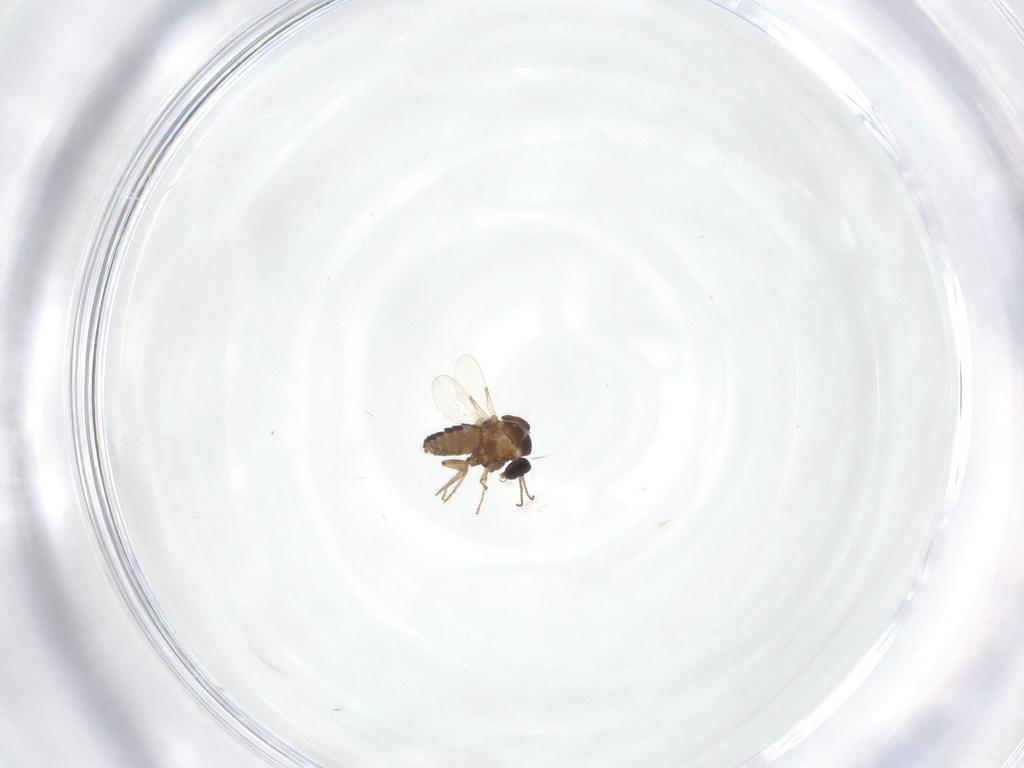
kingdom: Animalia
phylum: Arthropoda
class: Insecta
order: Diptera
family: Ceratopogonidae
